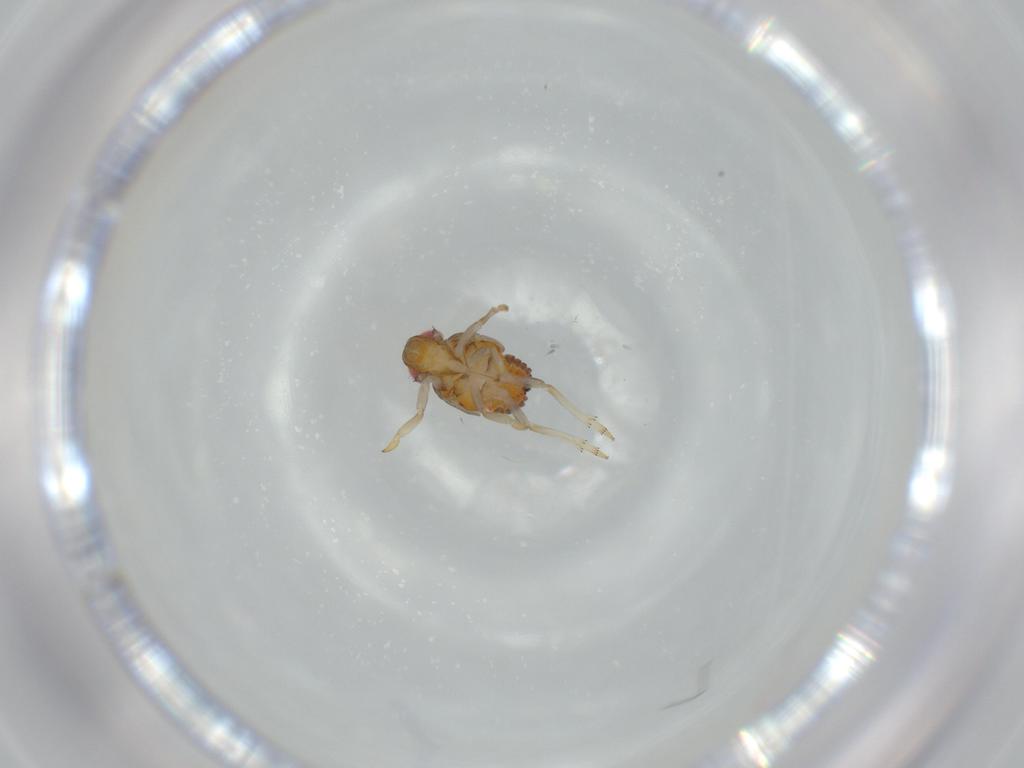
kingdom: Animalia
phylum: Arthropoda
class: Insecta
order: Hemiptera
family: Issidae
